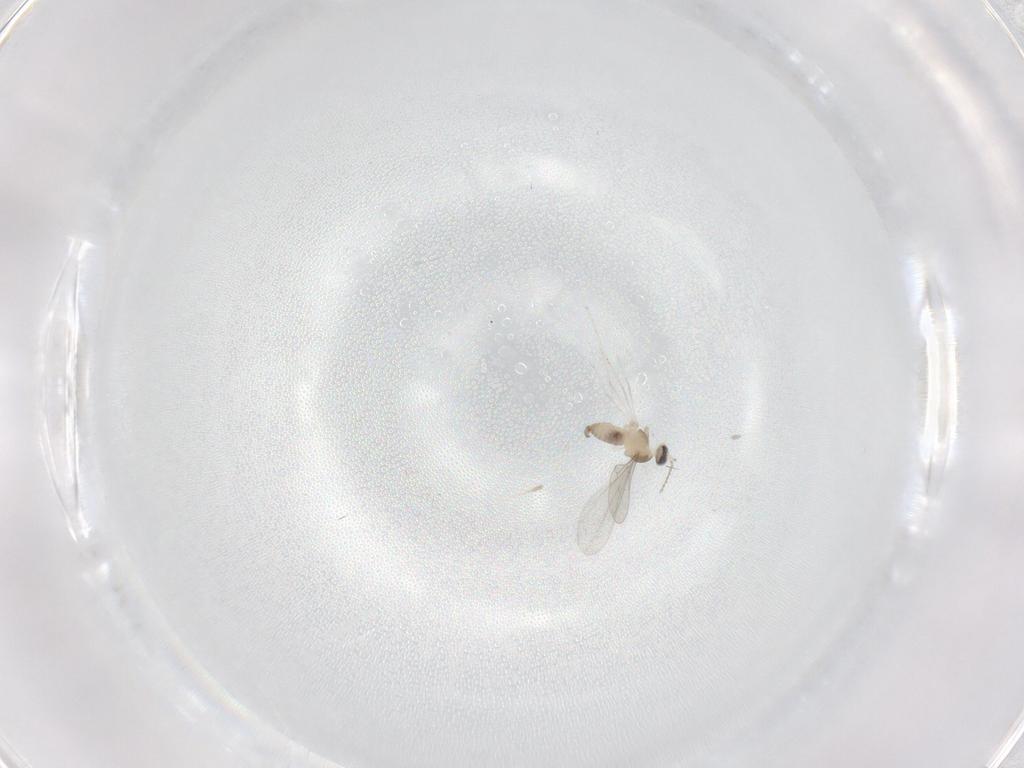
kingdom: Animalia
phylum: Arthropoda
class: Insecta
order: Diptera
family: Cecidomyiidae
